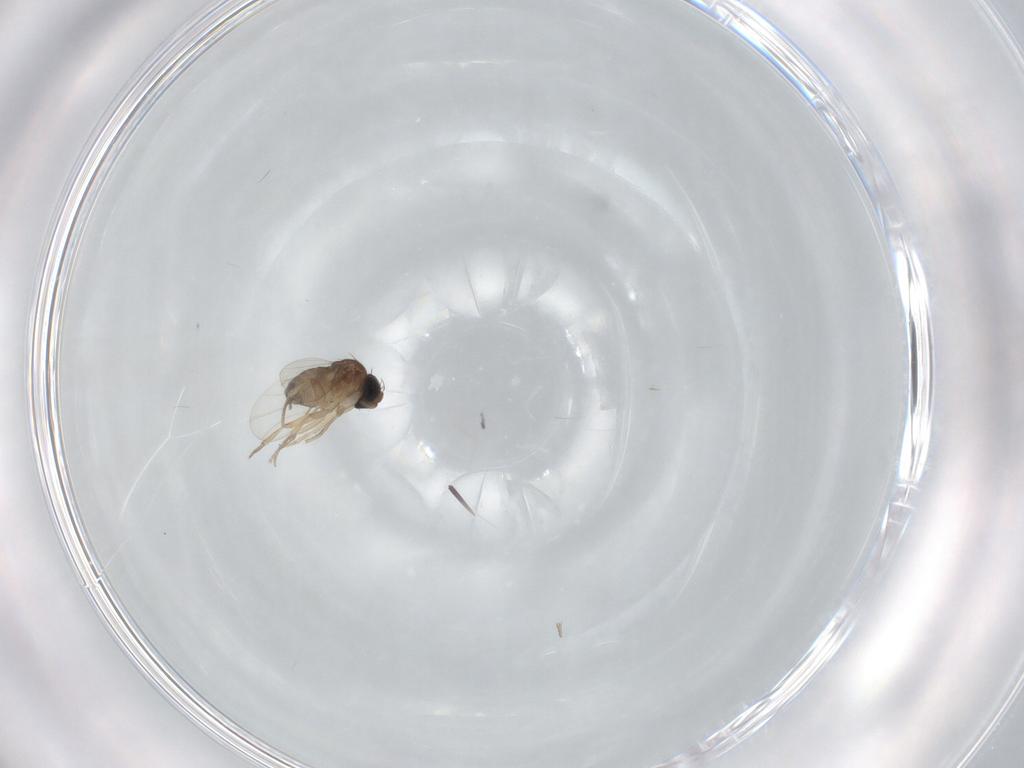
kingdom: Animalia
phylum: Arthropoda
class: Insecta
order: Diptera
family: Phoridae
